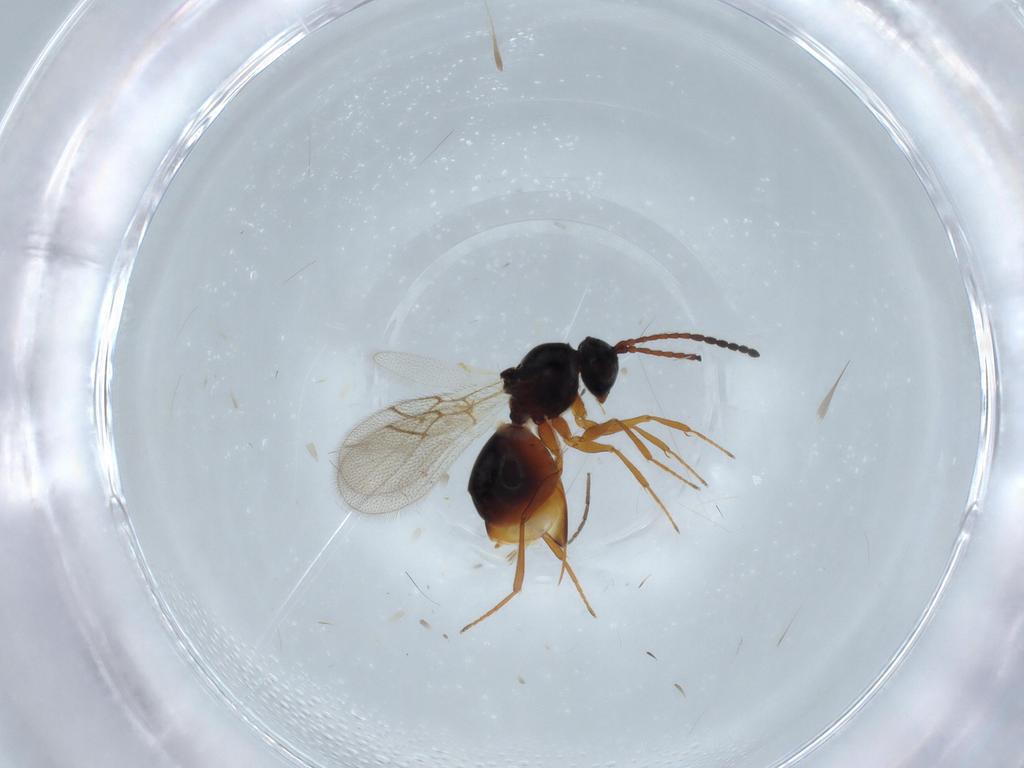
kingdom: Animalia
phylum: Arthropoda
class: Insecta
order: Hymenoptera
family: Figitidae
